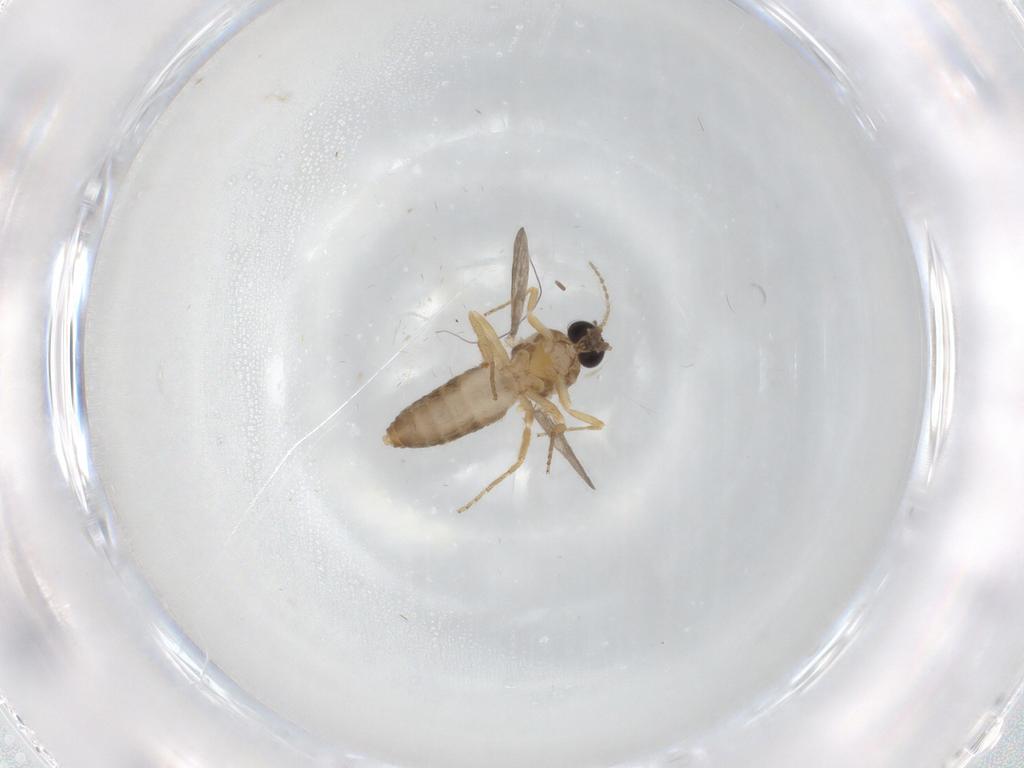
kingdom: Animalia
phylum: Arthropoda
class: Insecta
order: Diptera
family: Ceratopogonidae
